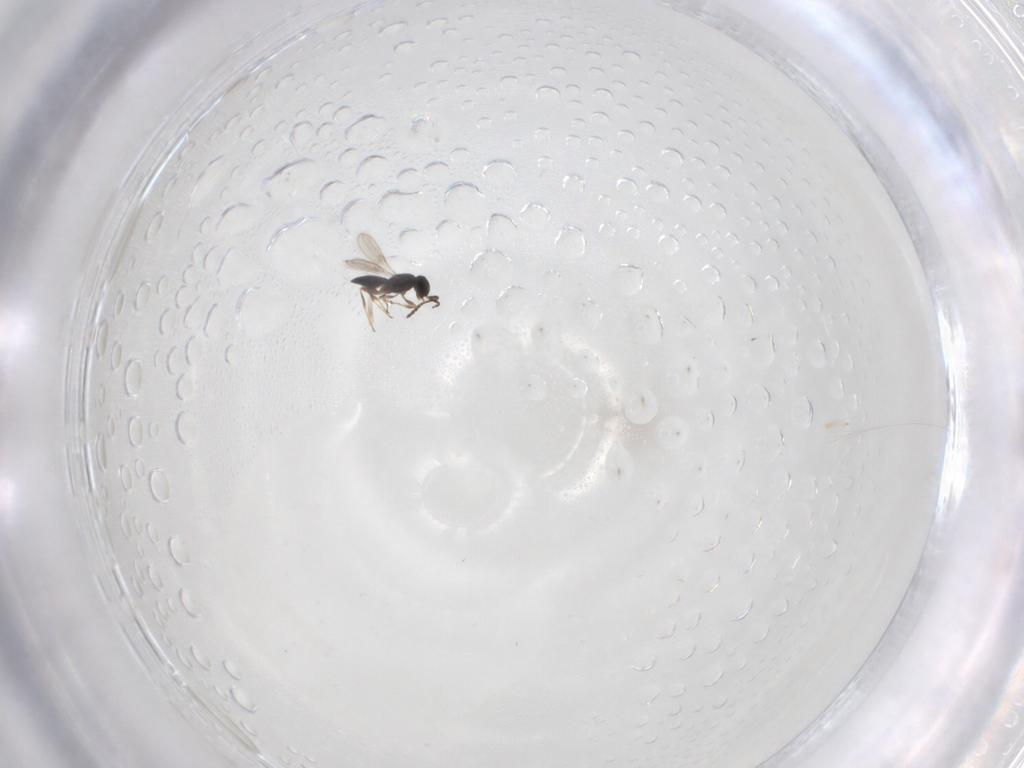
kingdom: Animalia
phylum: Arthropoda
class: Insecta
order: Hymenoptera
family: Scelionidae
